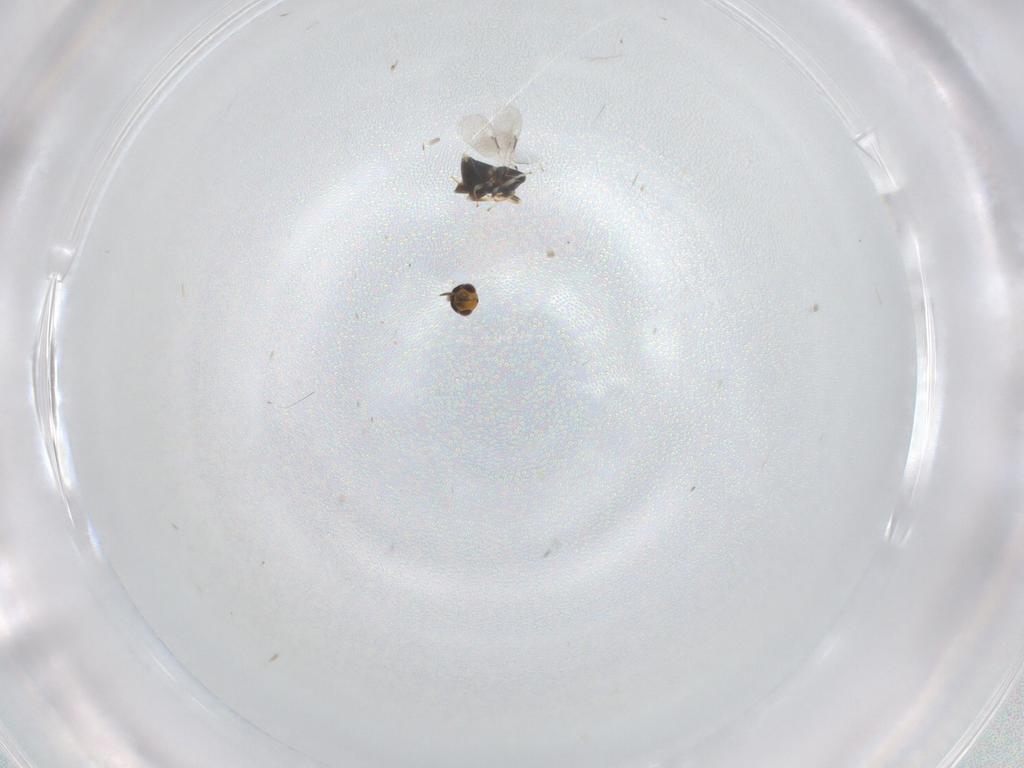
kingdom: Animalia
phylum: Arthropoda
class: Insecta
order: Hymenoptera
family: Aphelinidae
